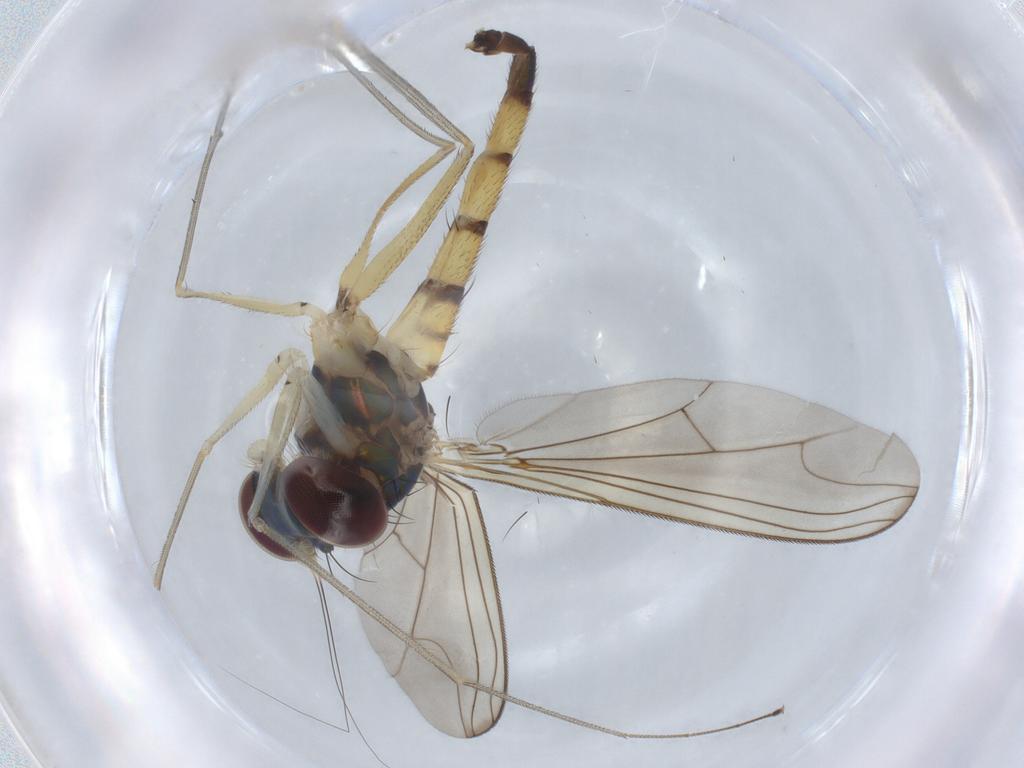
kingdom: Animalia
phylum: Arthropoda
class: Insecta
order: Diptera
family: Dolichopodidae
